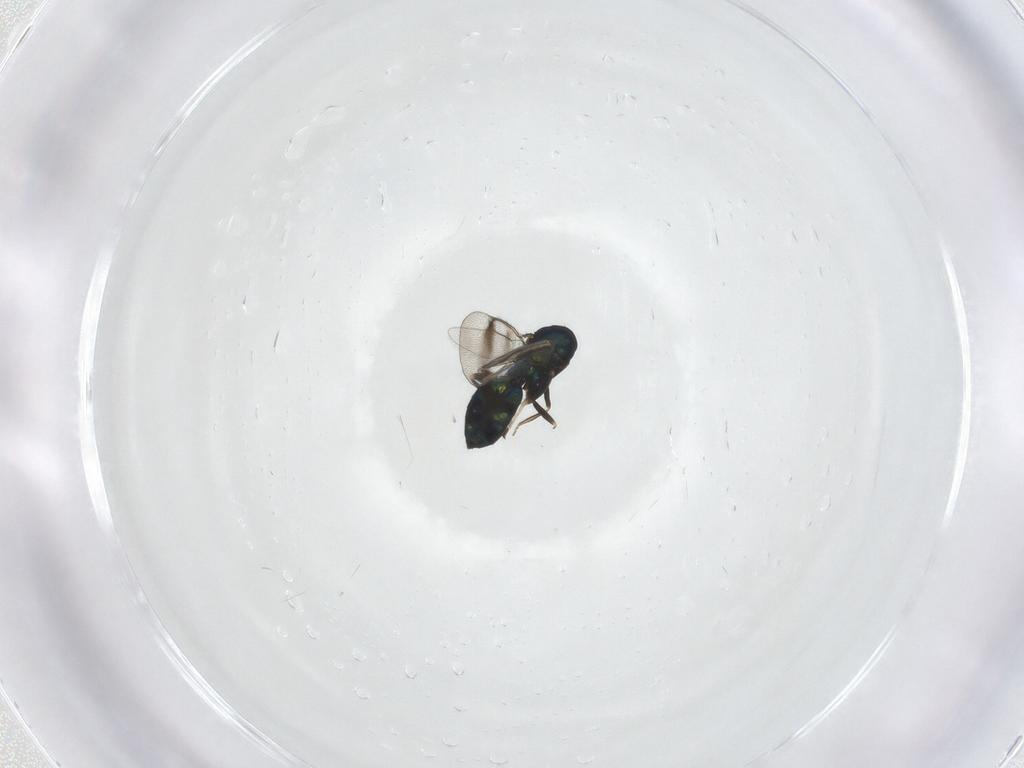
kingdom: Animalia
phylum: Arthropoda
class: Insecta
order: Hymenoptera
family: Eulophidae
